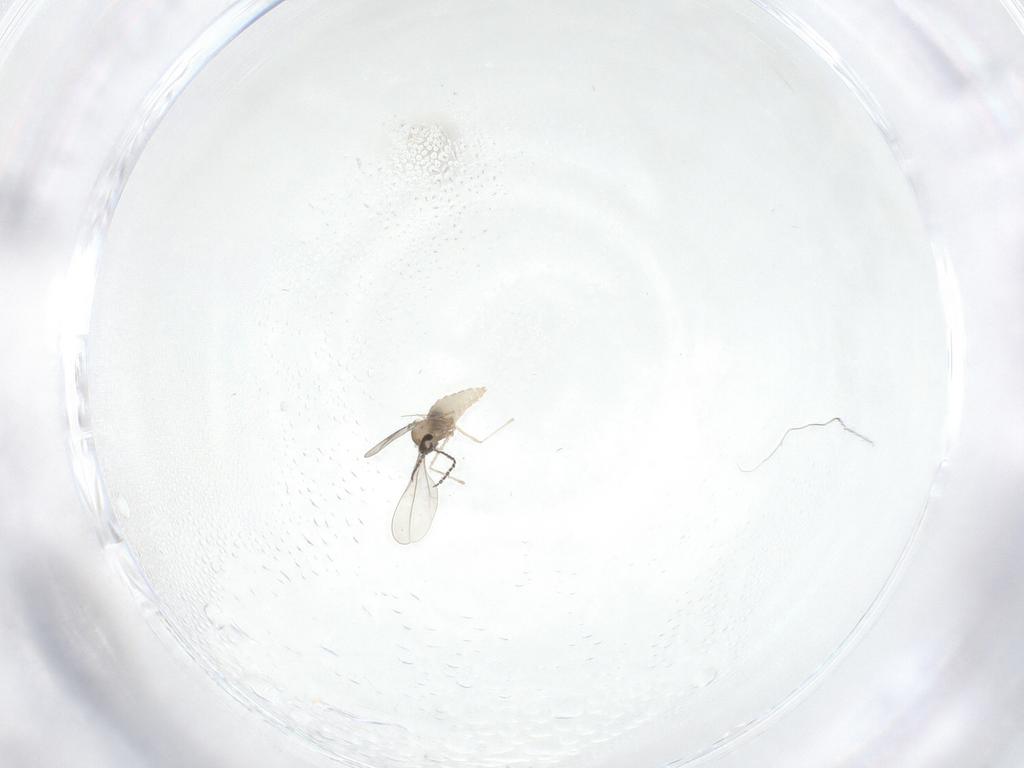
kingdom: Animalia
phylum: Arthropoda
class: Insecta
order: Diptera
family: Cecidomyiidae
